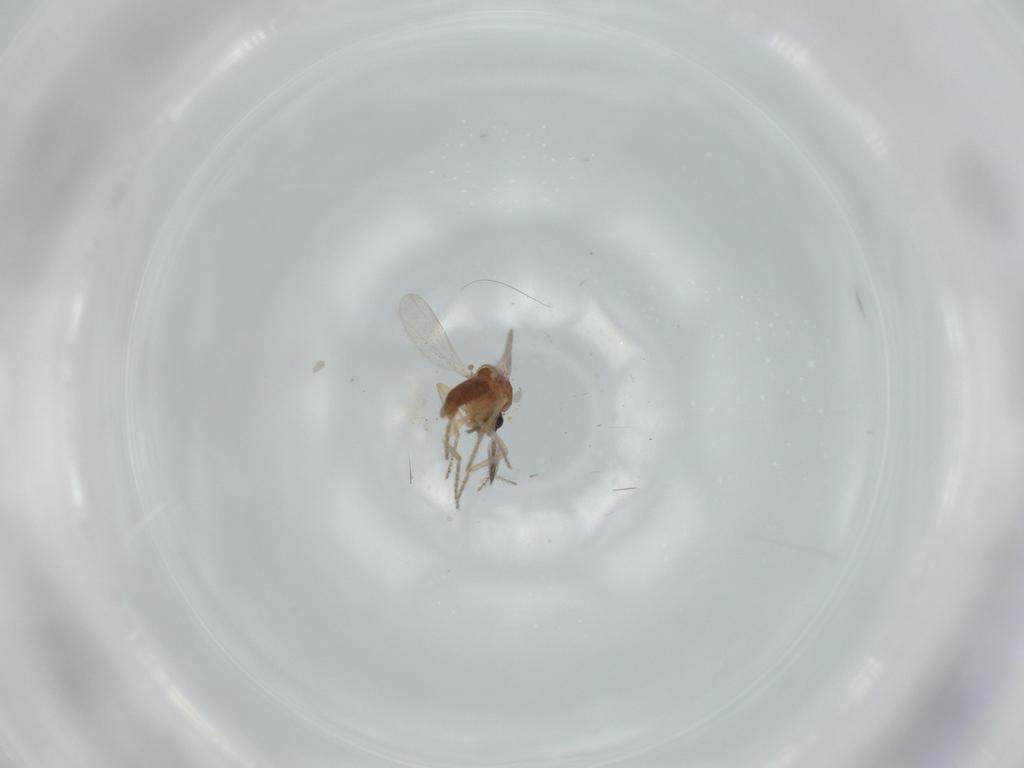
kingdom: Animalia
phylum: Arthropoda
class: Insecta
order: Diptera
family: Ceratopogonidae
